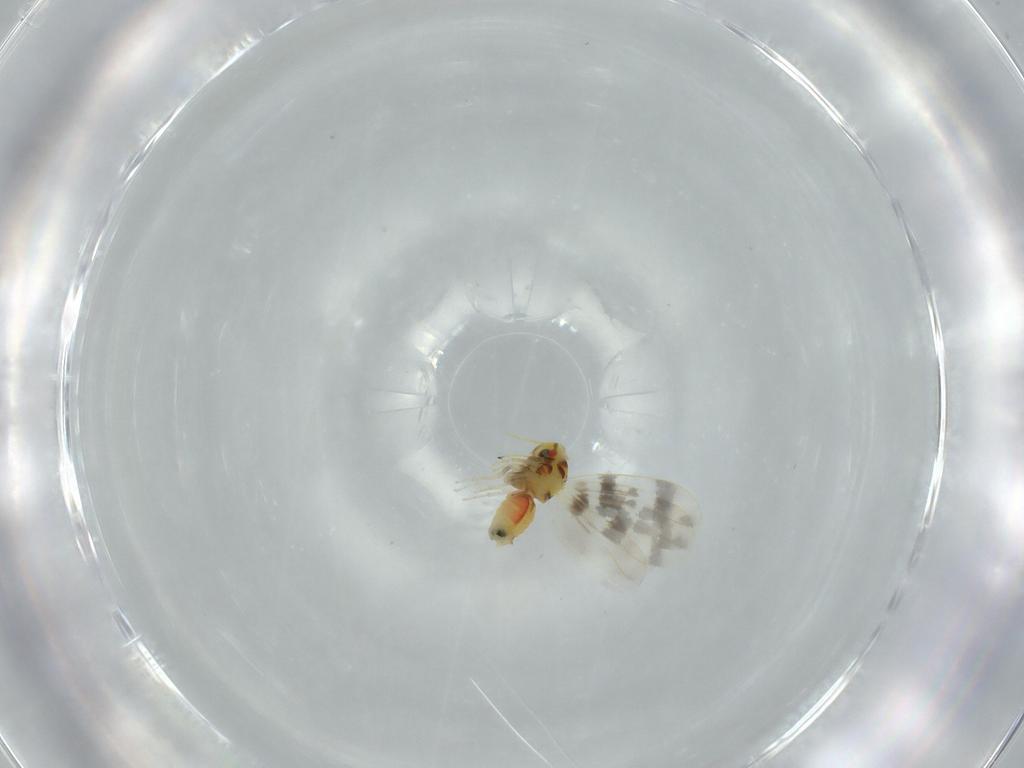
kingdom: Animalia
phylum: Arthropoda
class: Insecta
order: Hemiptera
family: Aleyrodidae
